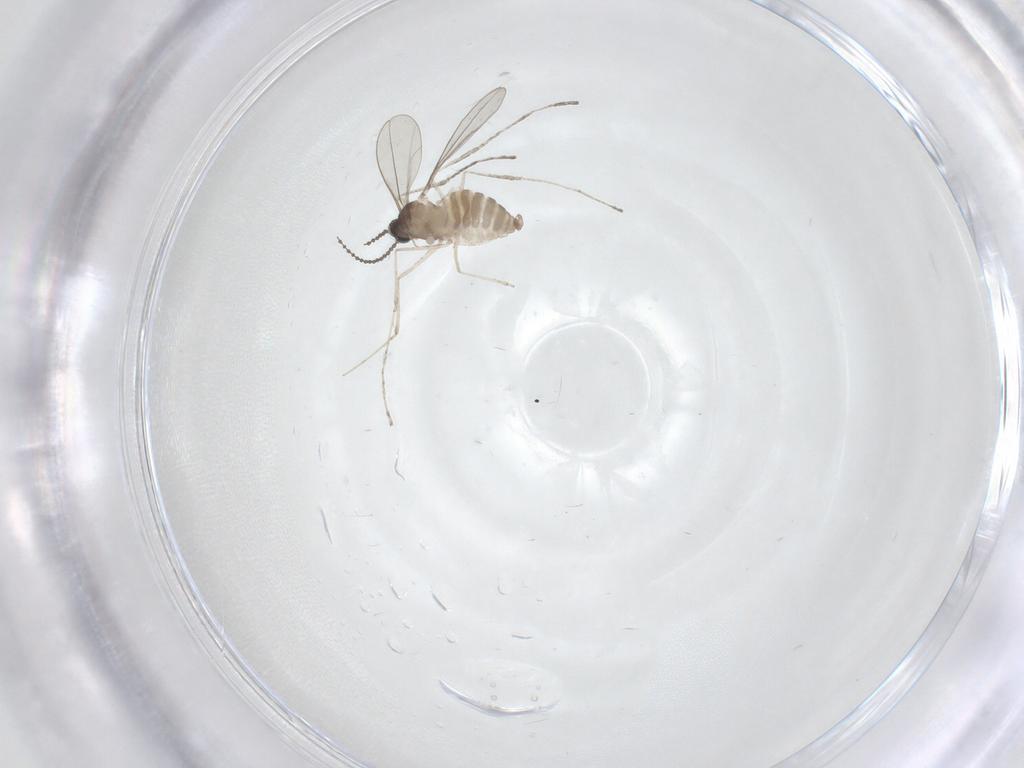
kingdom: Animalia
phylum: Arthropoda
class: Insecta
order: Diptera
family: Cecidomyiidae
